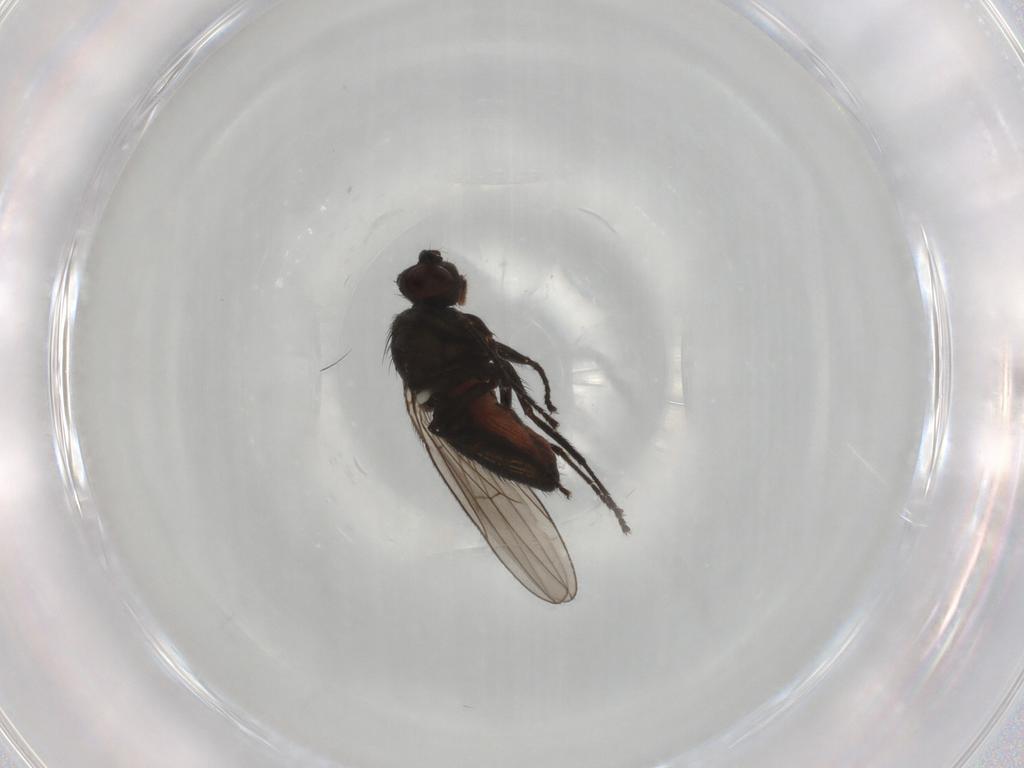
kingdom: Animalia
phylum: Arthropoda
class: Insecta
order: Diptera
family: Ephydridae
